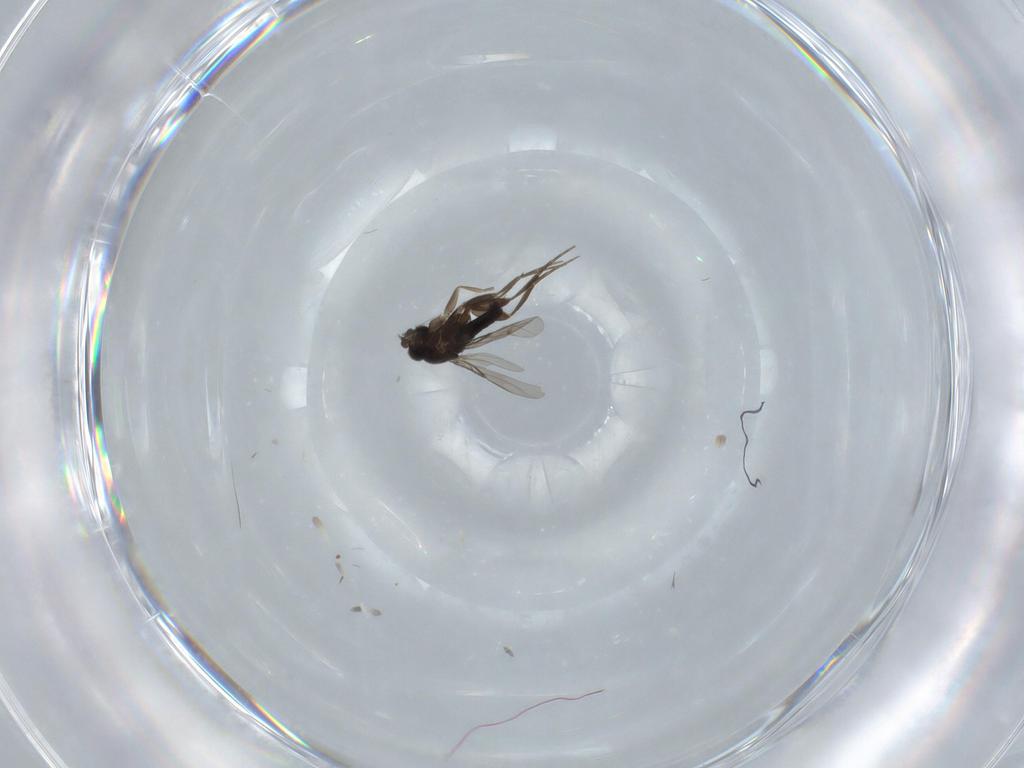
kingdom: Animalia
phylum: Arthropoda
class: Insecta
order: Diptera
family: Phoridae
